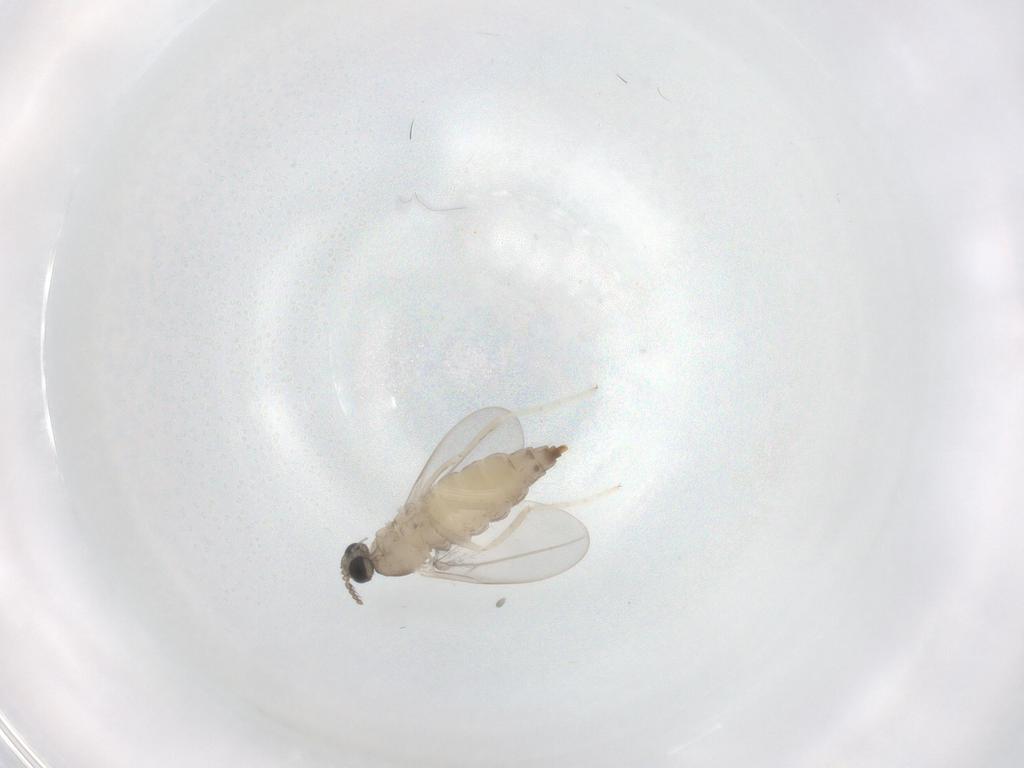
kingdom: Animalia
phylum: Arthropoda
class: Insecta
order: Diptera
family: Cecidomyiidae
